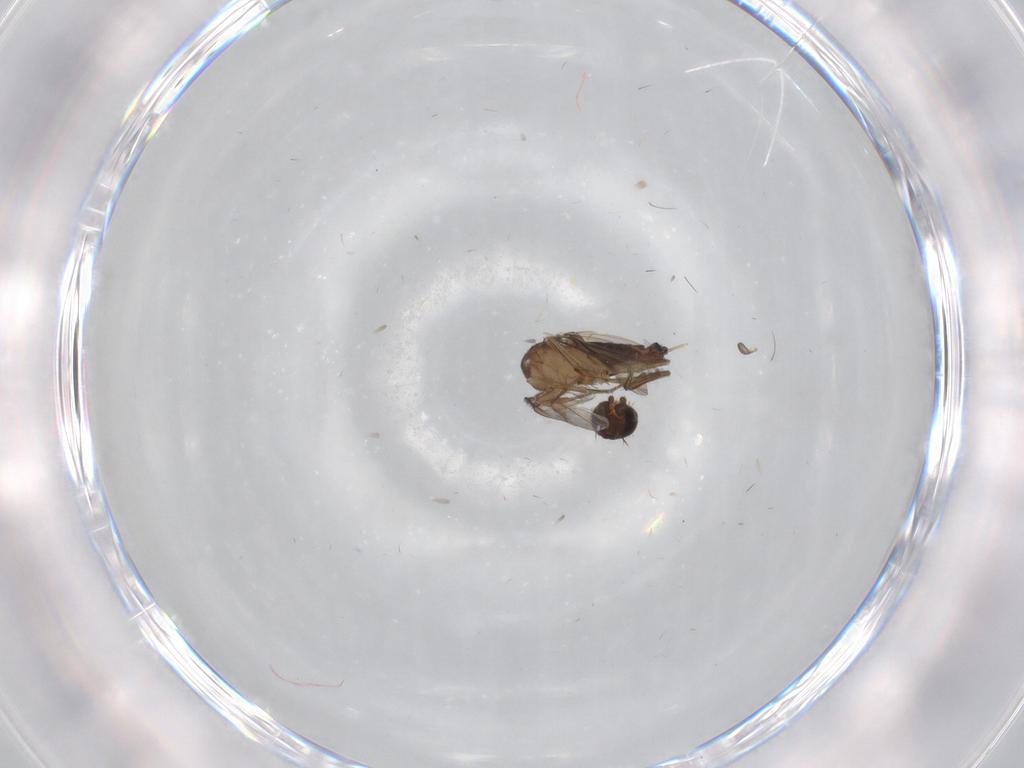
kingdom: Animalia
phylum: Arthropoda
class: Insecta
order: Diptera
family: Phoridae
